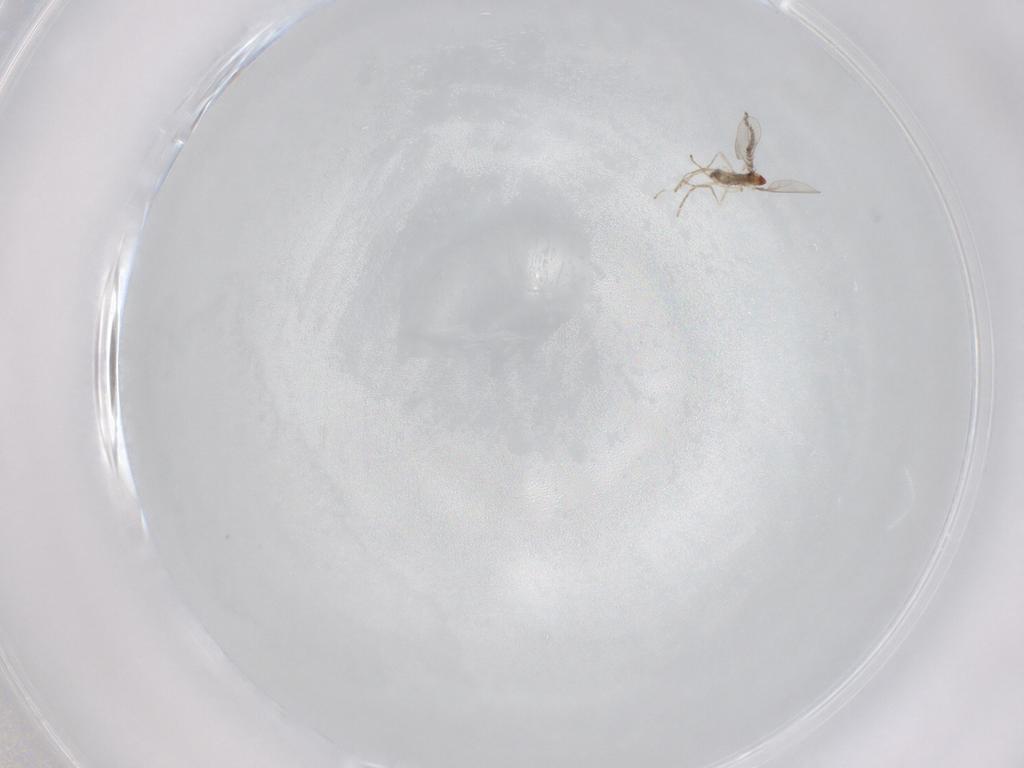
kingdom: Animalia
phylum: Arthropoda
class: Insecta
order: Diptera
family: Cecidomyiidae
